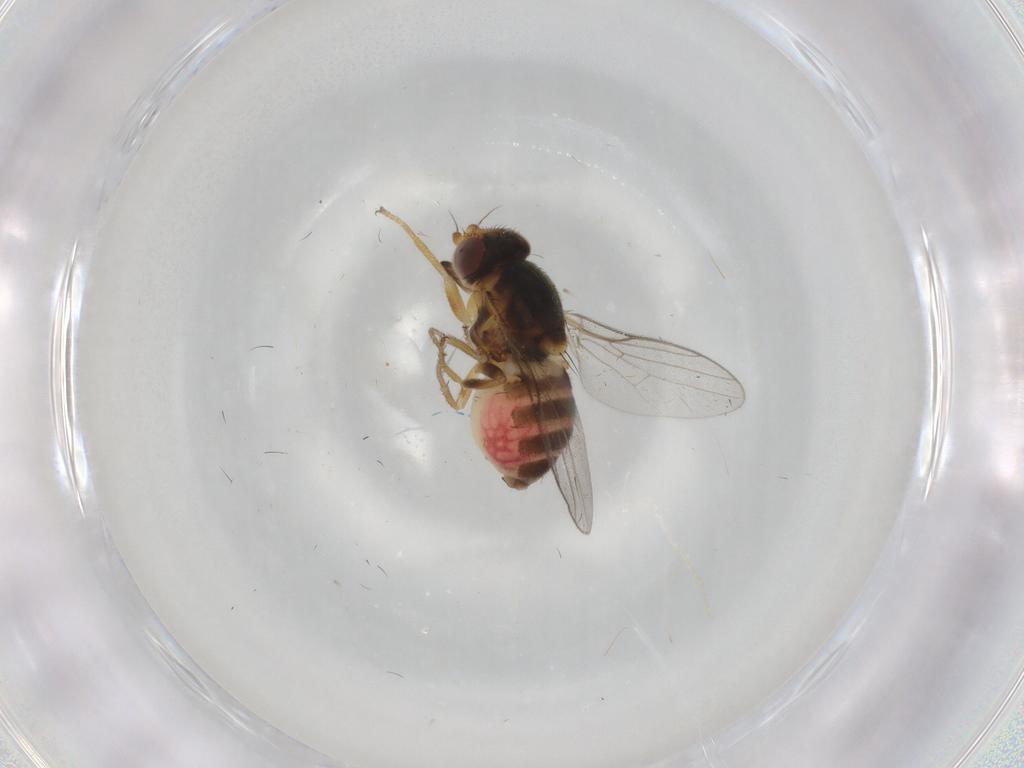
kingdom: Animalia
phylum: Arthropoda
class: Insecta
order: Diptera
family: Chloropidae
